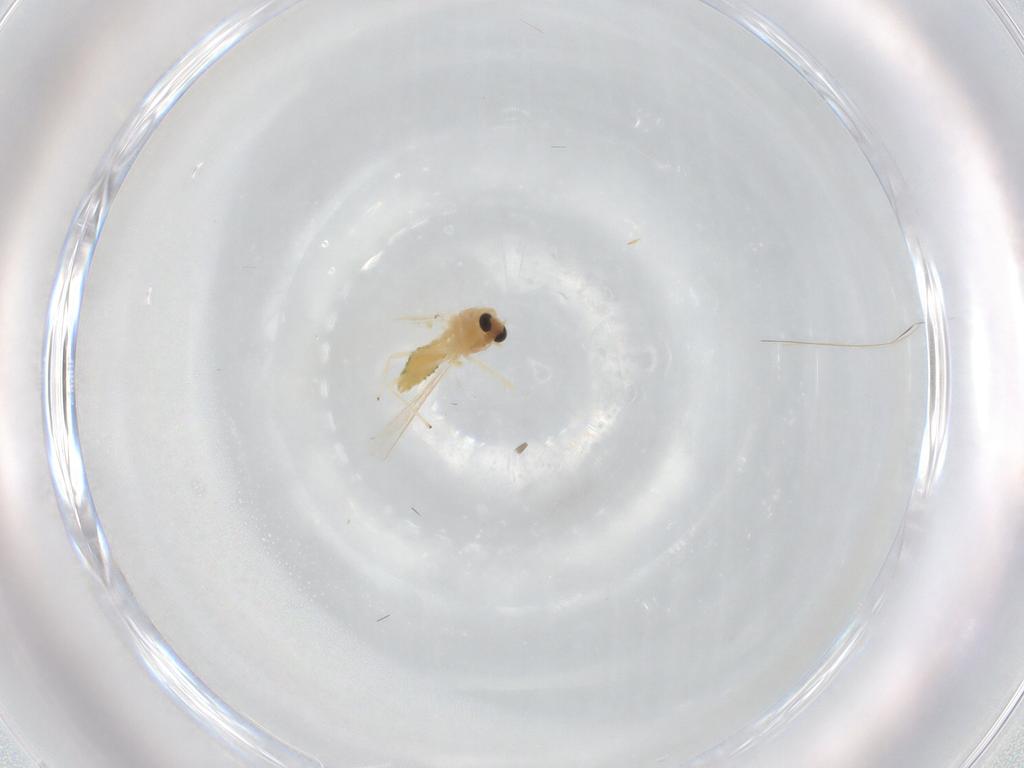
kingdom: Animalia
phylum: Arthropoda
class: Insecta
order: Diptera
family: Chironomidae
